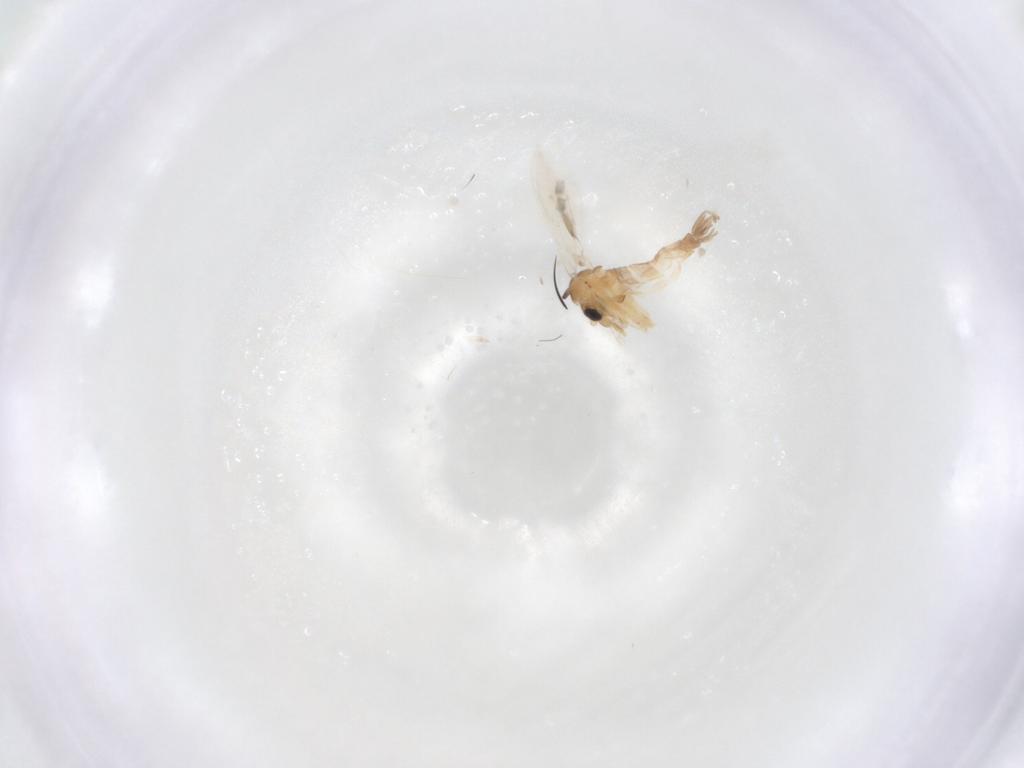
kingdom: Animalia
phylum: Arthropoda
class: Insecta
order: Diptera
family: Psychodidae
